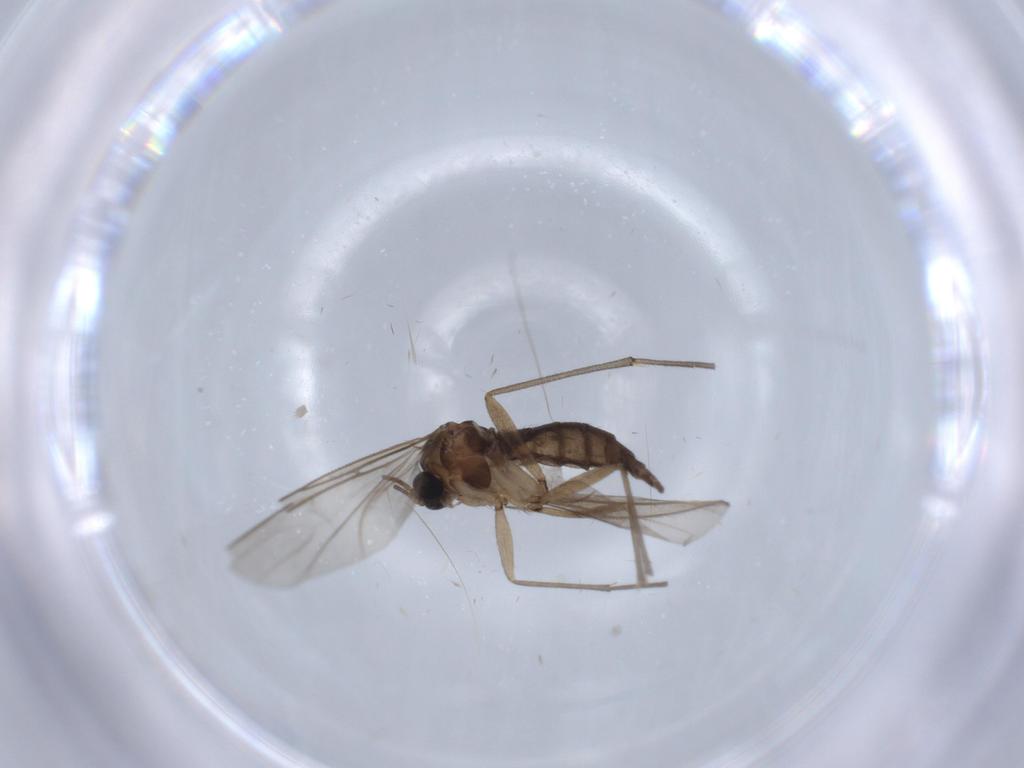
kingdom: Animalia
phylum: Arthropoda
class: Insecta
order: Diptera
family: Sciaridae
